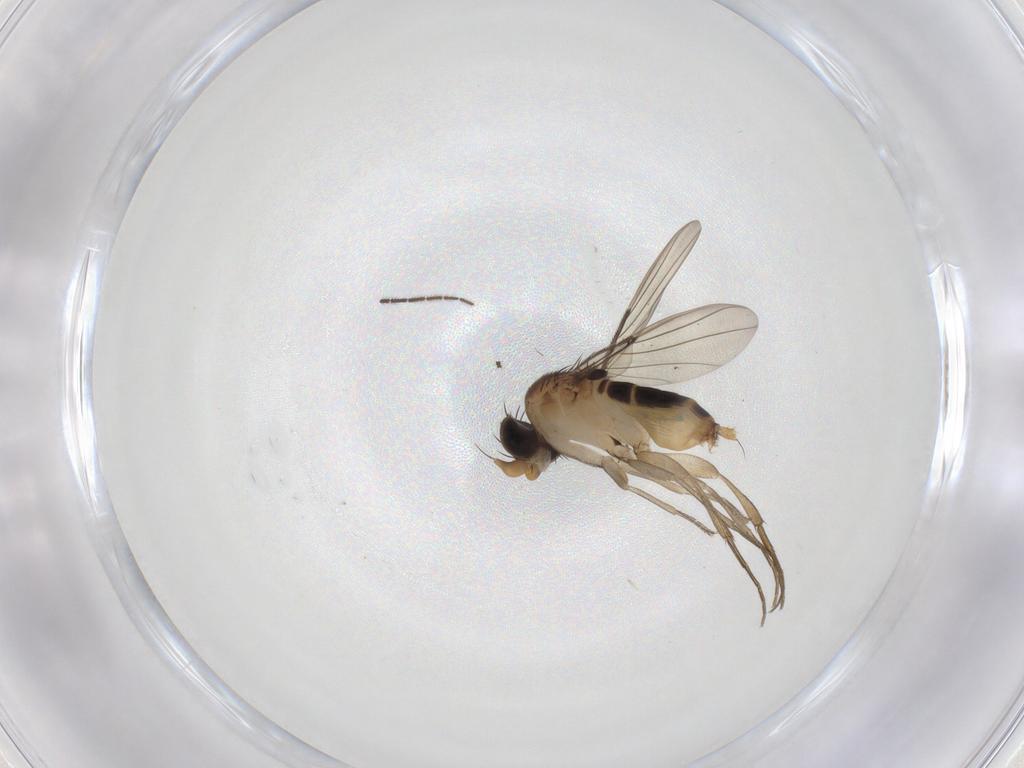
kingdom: Animalia
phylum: Arthropoda
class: Insecta
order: Diptera
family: Phoridae
